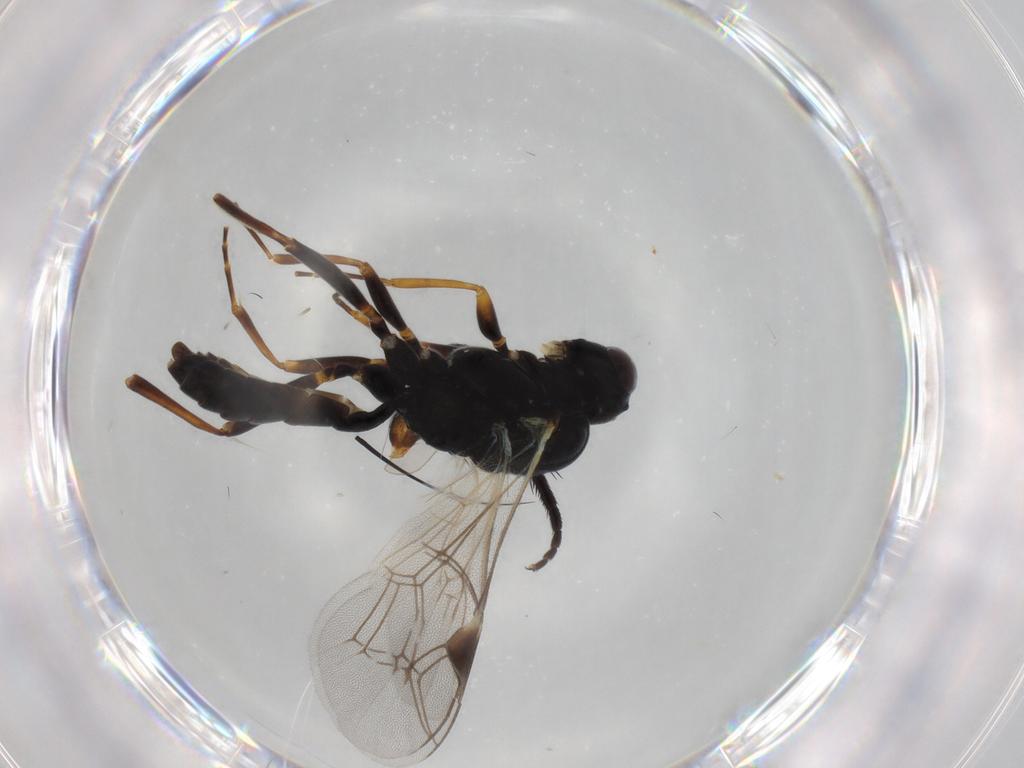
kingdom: Animalia
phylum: Arthropoda
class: Insecta
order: Hymenoptera
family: Ichneumonidae
